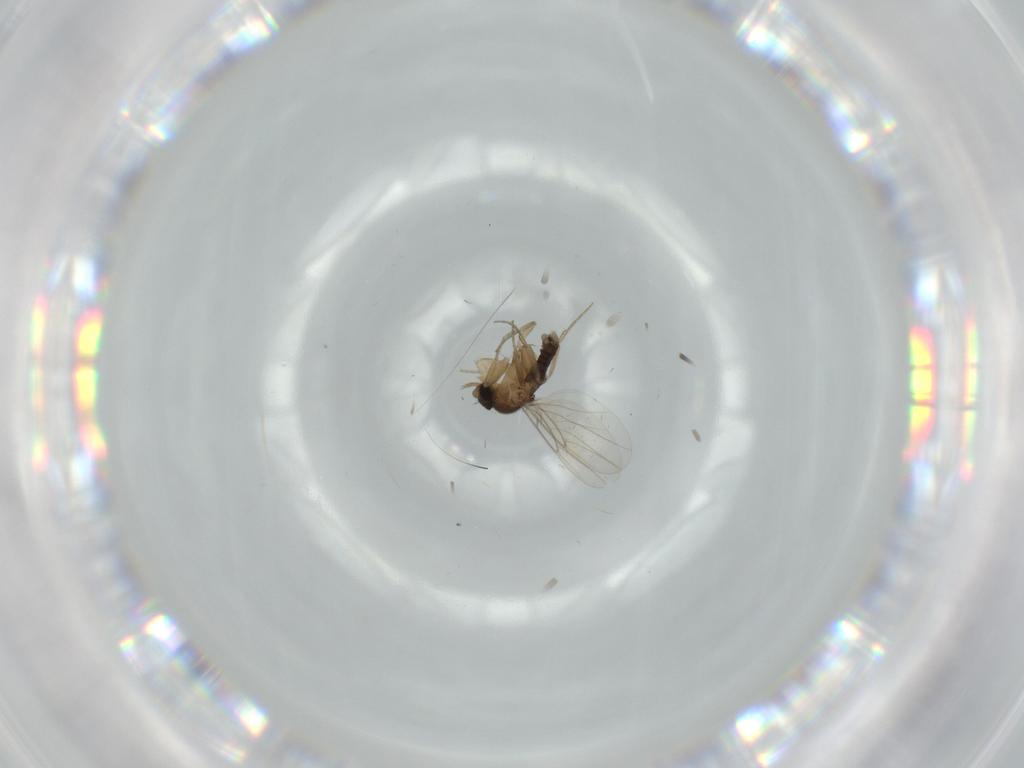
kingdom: Animalia
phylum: Arthropoda
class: Insecta
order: Diptera
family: Phoridae
